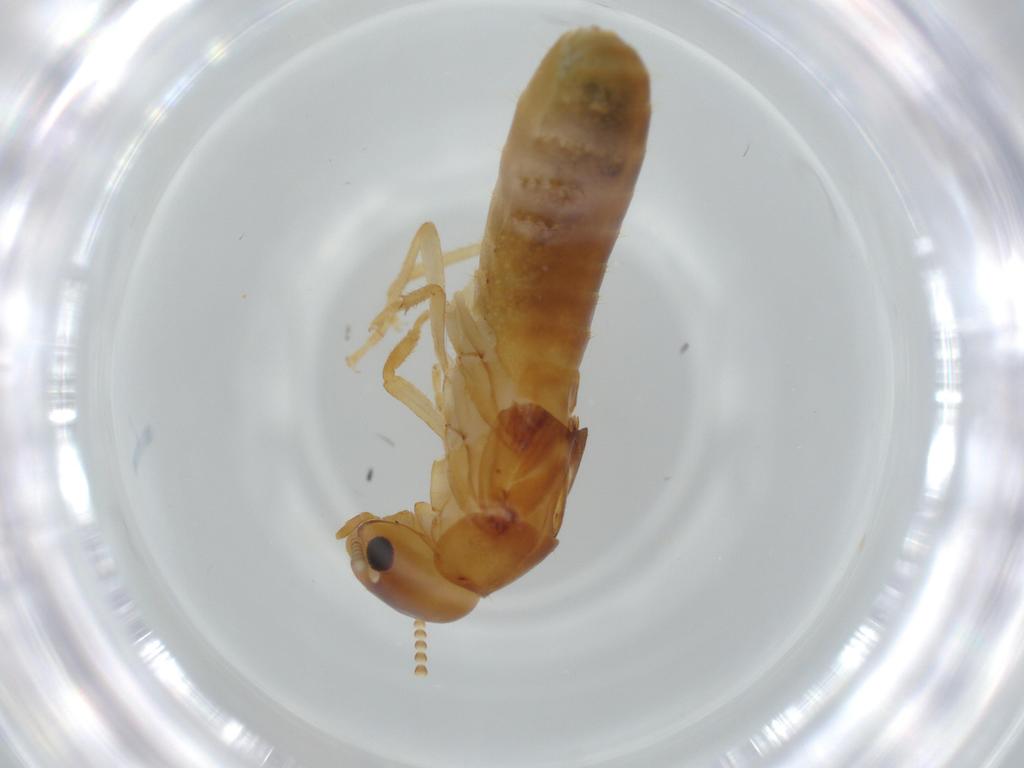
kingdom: Animalia
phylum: Arthropoda
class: Insecta
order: Blattodea
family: Kalotermitidae
